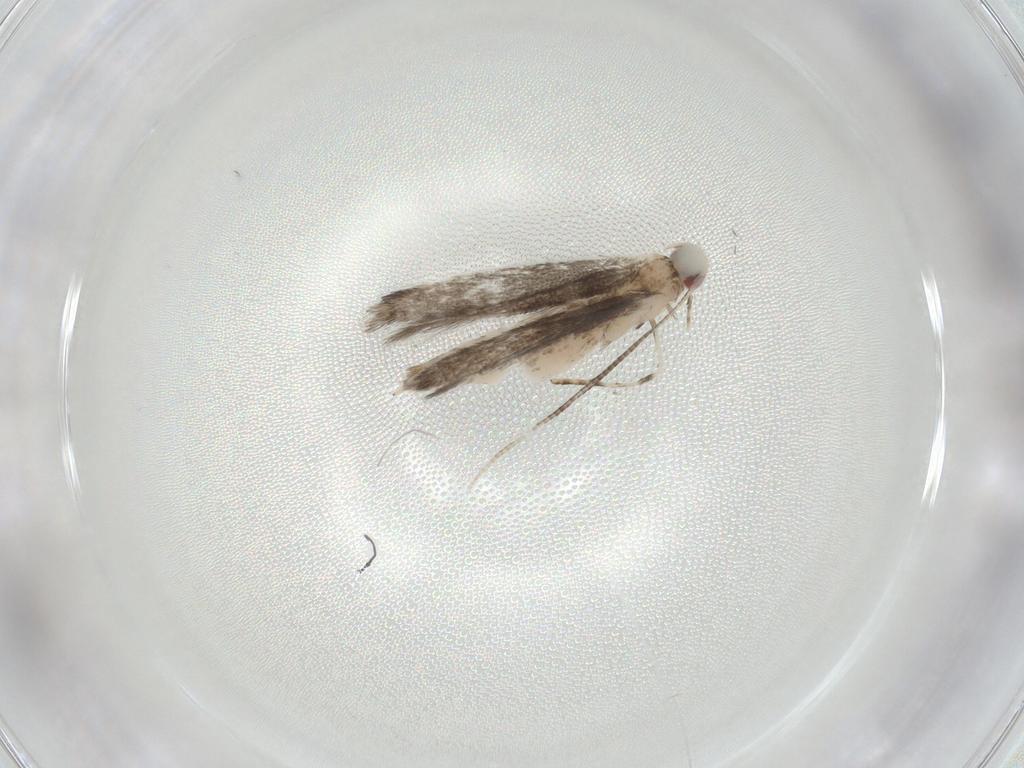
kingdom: Animalia
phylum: Arthropoda
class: Insecta
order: Lepidoptera
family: Gracillariidae
